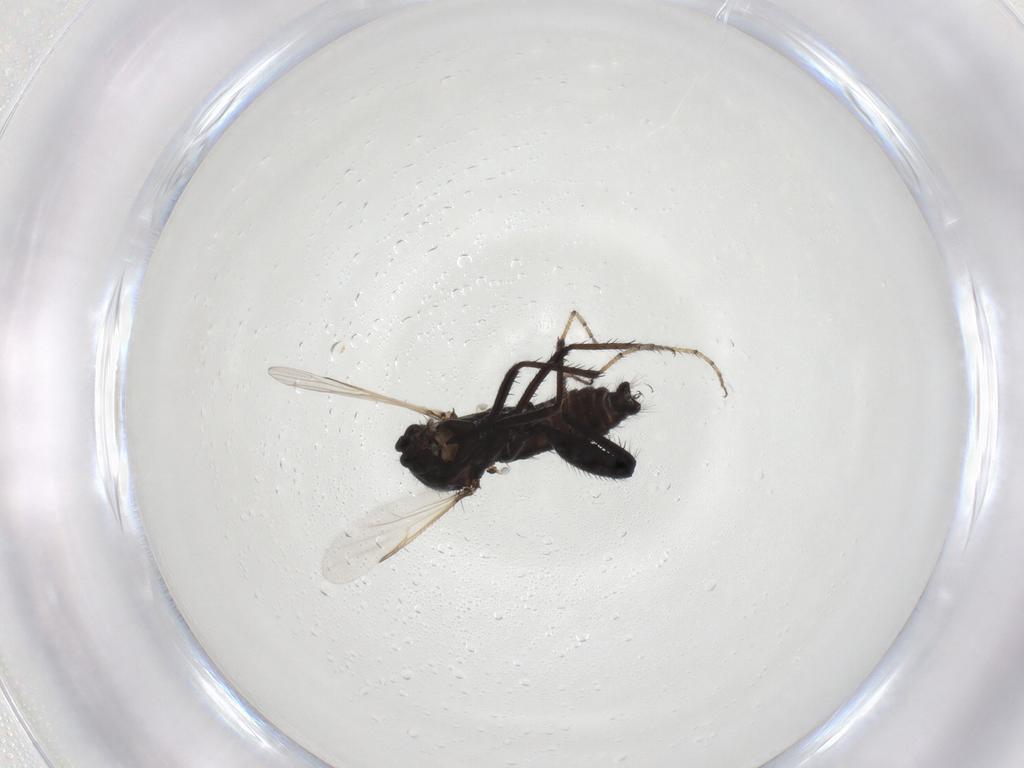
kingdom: Animalia
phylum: Arthropoda
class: Insecta
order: Diptera
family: Ceratopogonidae
